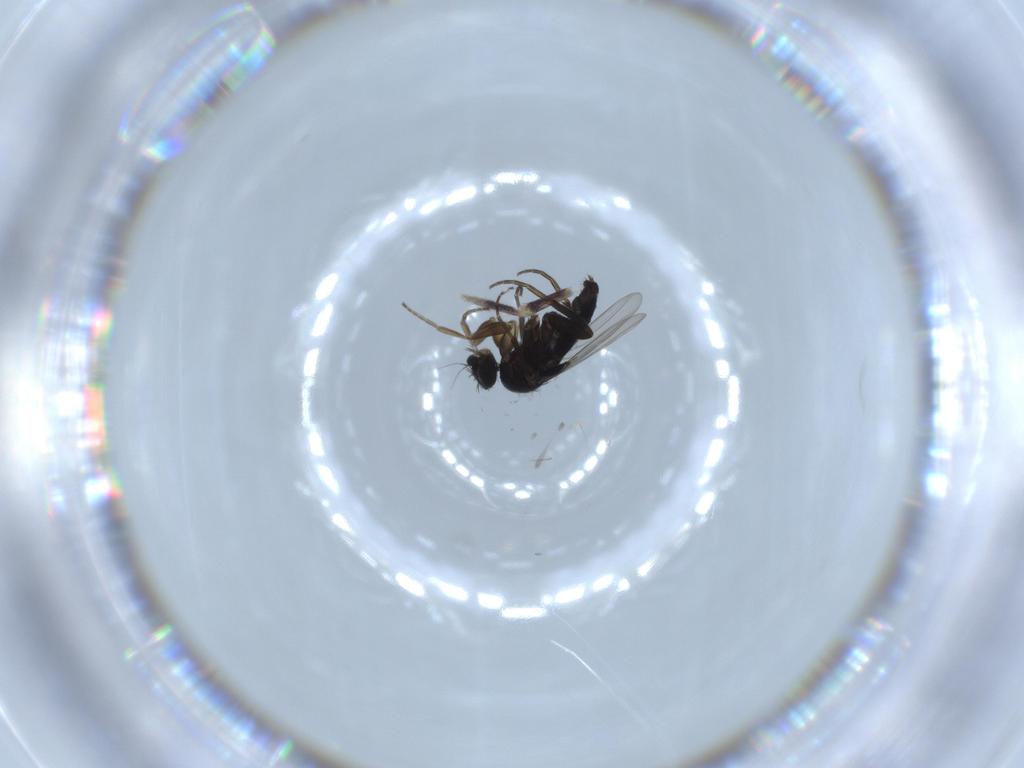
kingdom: Animalia
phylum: Arthropoda
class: Insecta
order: Diptera
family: Phoridae
